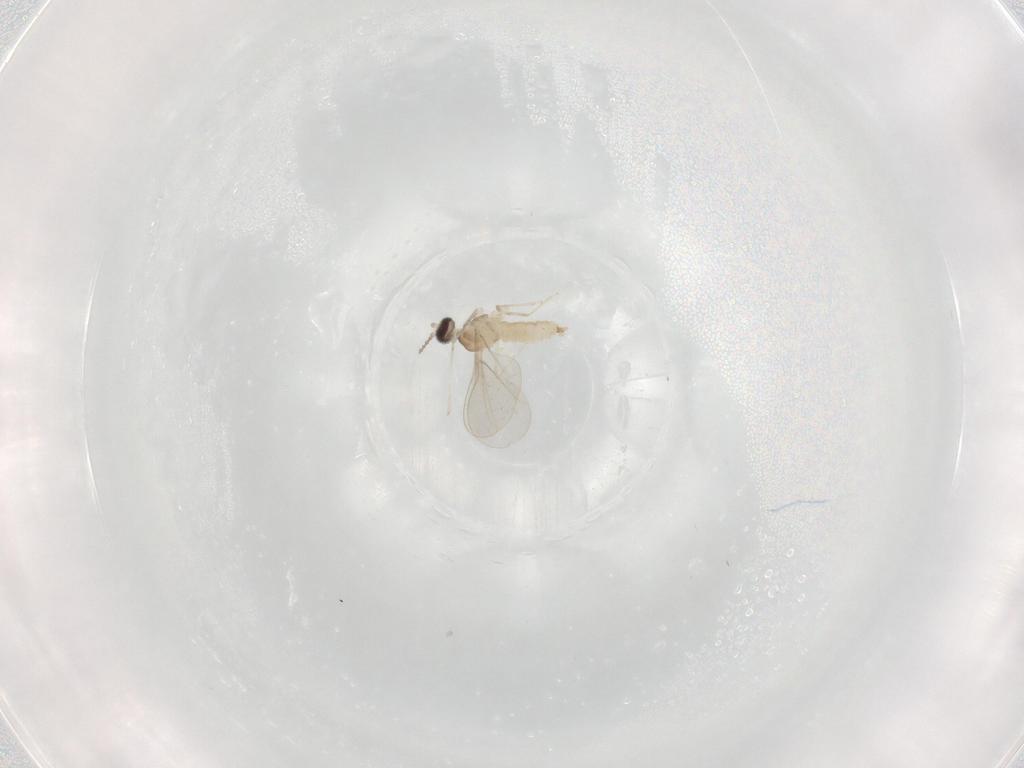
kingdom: Animalia
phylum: Arthropoda
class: Insecta
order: Diptera
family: Cecidomyiidae
